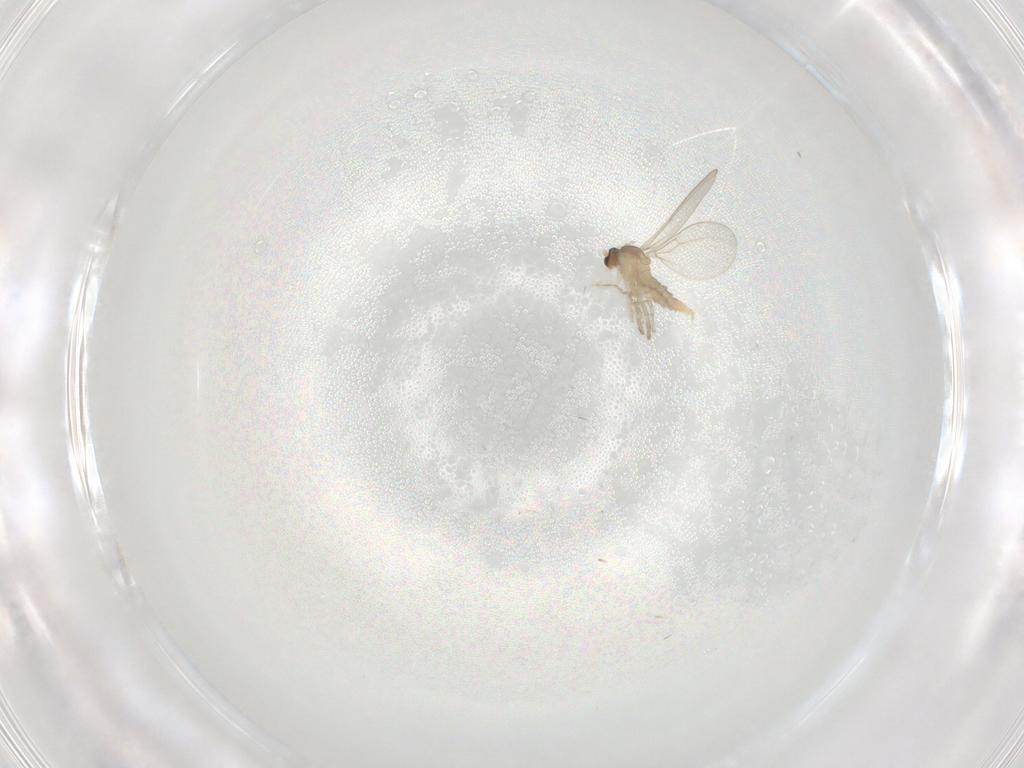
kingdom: Animalia
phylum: Arthropoda
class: Insecta
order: Diptera
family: Cecidomyiidae
